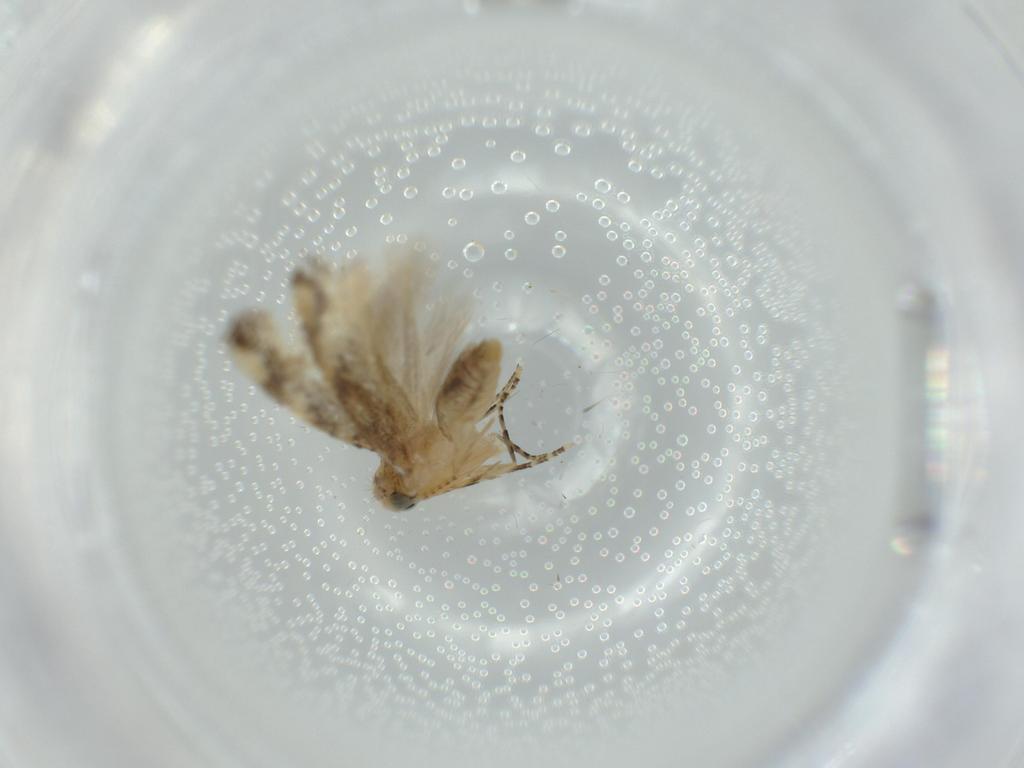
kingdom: Animalia
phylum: Arthropoda
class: Insecta
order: Lepidoptera
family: Bucculatricidae
